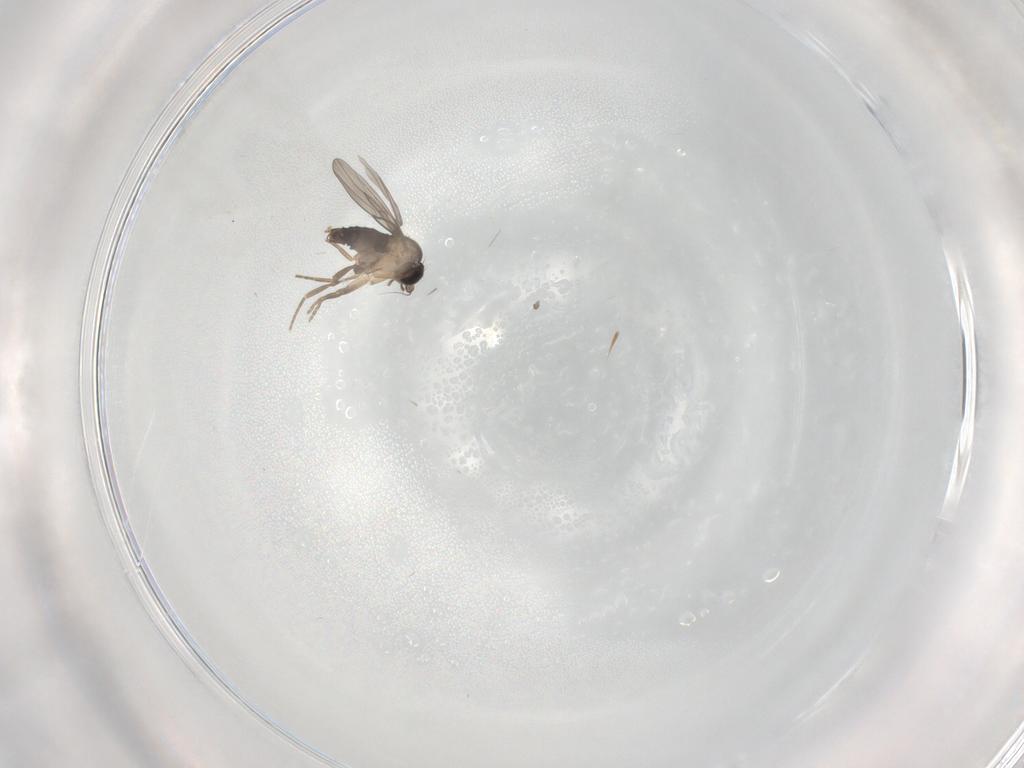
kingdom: Animalia
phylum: Arthropoda
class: Insecta
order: Diptera
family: Phoridae
